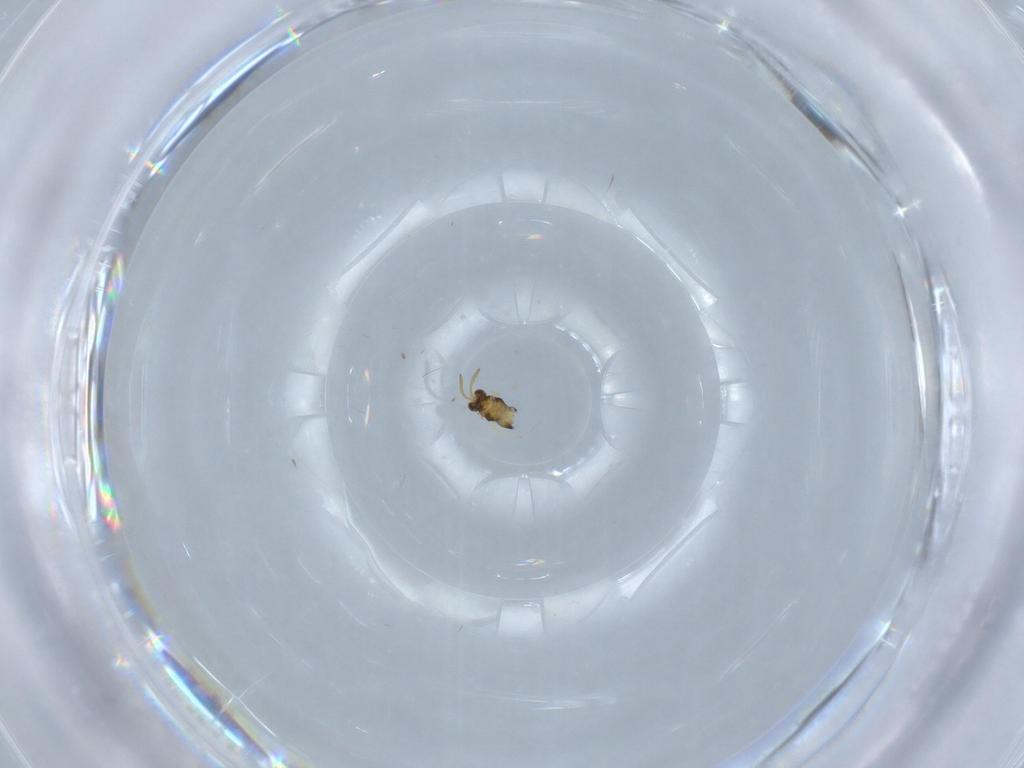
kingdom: Animalia
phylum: Arthropoda
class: Insecta
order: Hymenoptera
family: Aphelinidae
